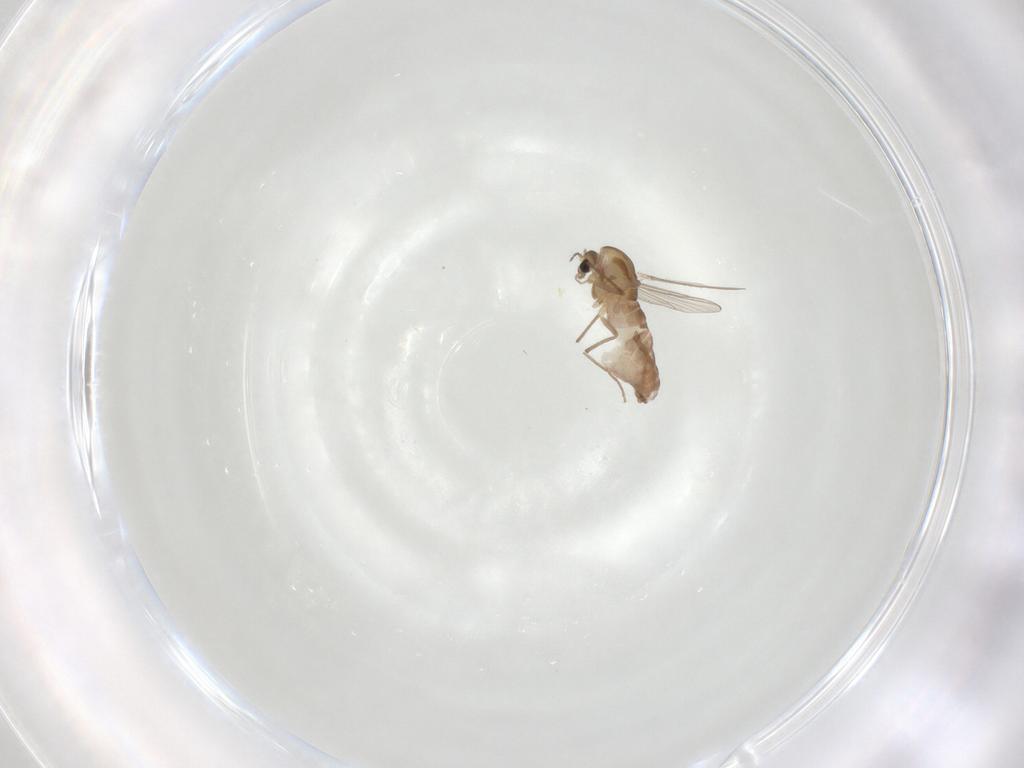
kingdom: Animalia
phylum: Arthropoda
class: Insecta
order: Diptera
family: Chironomidae
